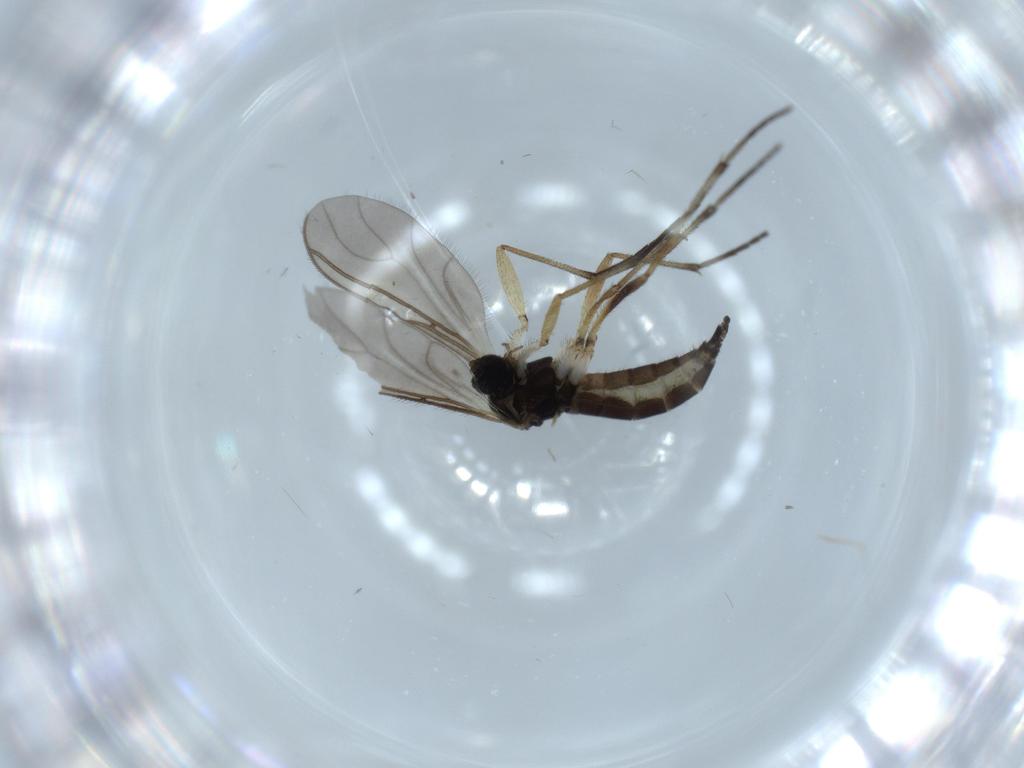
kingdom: Animalia
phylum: Arthropoda
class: Insecta
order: Diptera
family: Sciaridae
